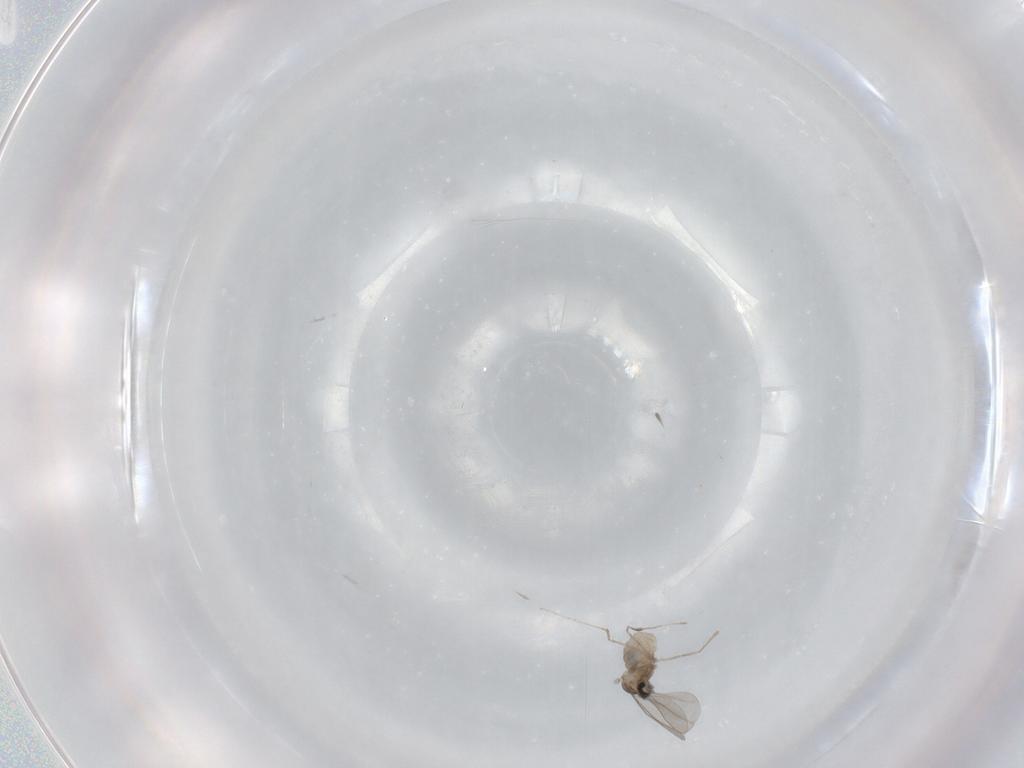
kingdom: Animalia
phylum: Arthropoda
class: Insecta
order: Diptera
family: Cecidomyiidae
